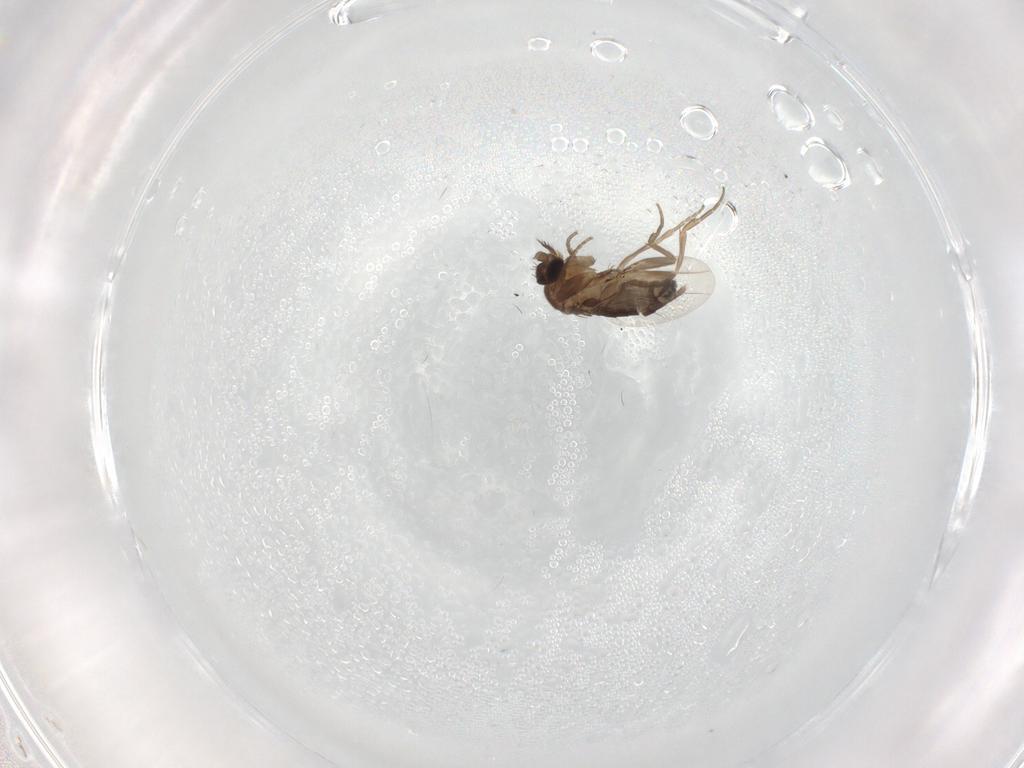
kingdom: Animalia
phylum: Arthropoda
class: Insecta
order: Diptera
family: Phoridae
